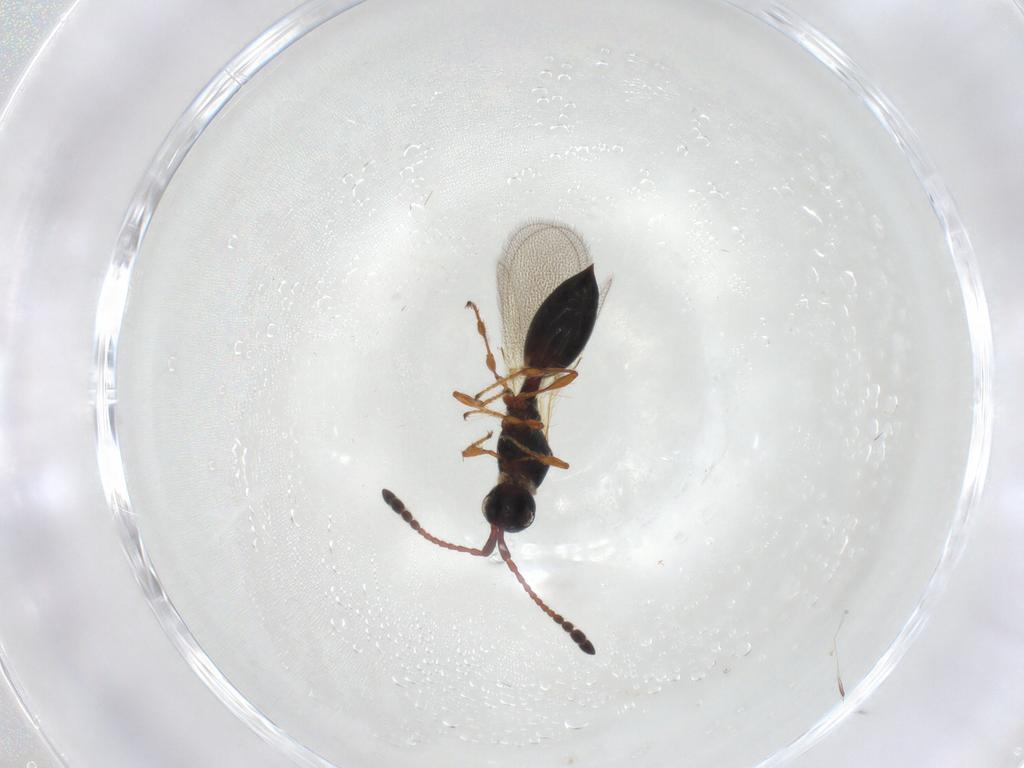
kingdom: Animalia
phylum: Arthropoda
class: Insecta
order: Hymenoptera
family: Diapriidae
